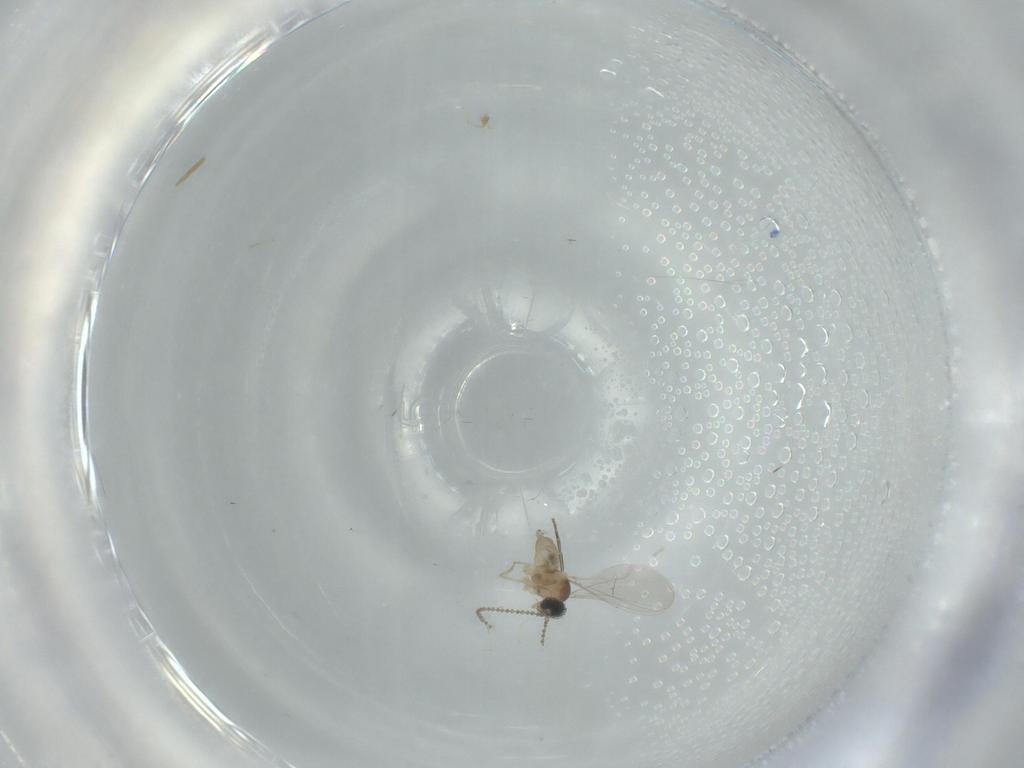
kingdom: Animalia
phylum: Arthropoda
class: Insecta
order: Diptera
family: Cecidomyiidae
